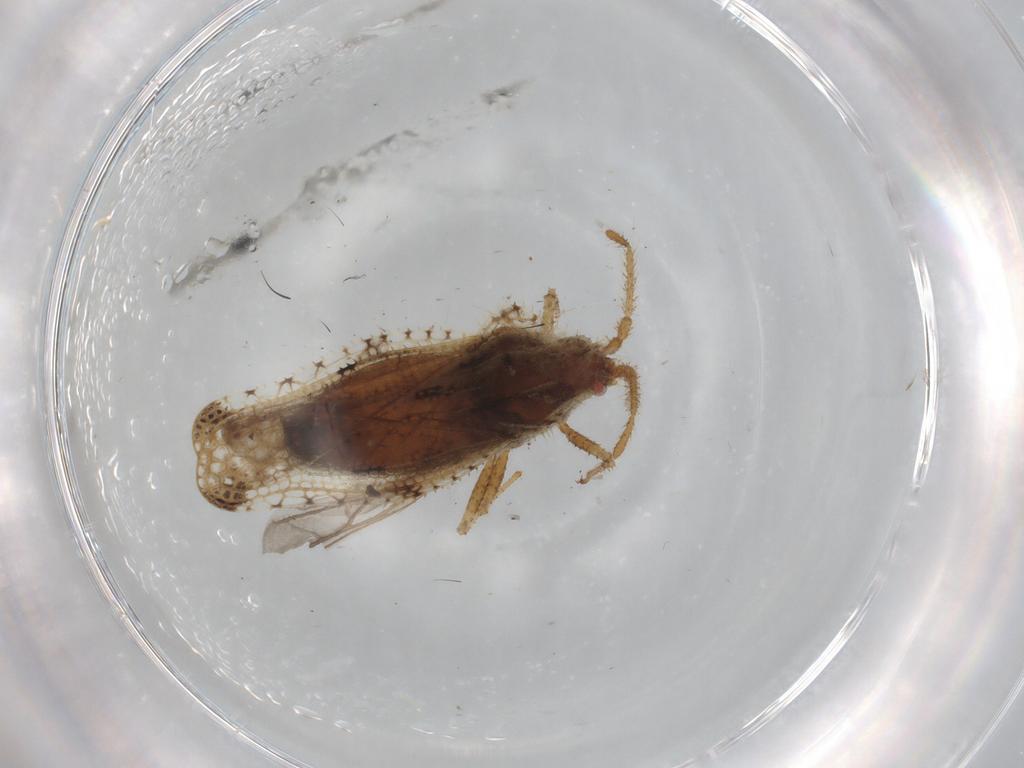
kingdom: Animalia
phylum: Arthropoda
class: Insecta
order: Hemiptera
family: Tingidae
